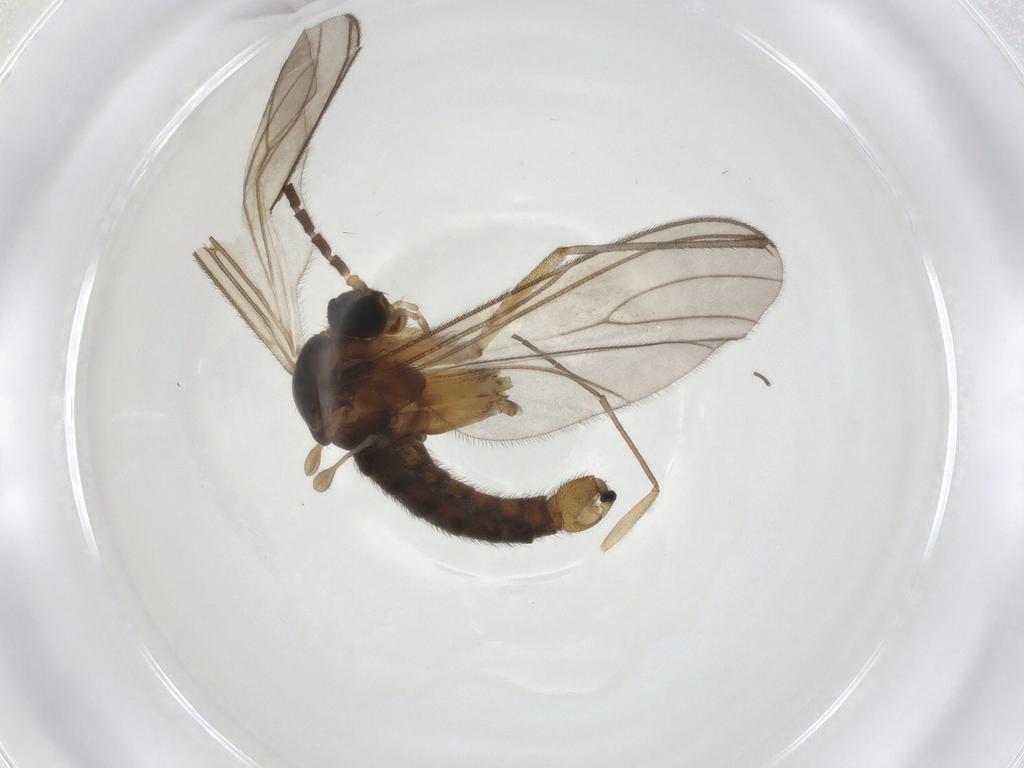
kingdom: Animalia
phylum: Arthropoda
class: Insecta
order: Diptera
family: Sciaridae
